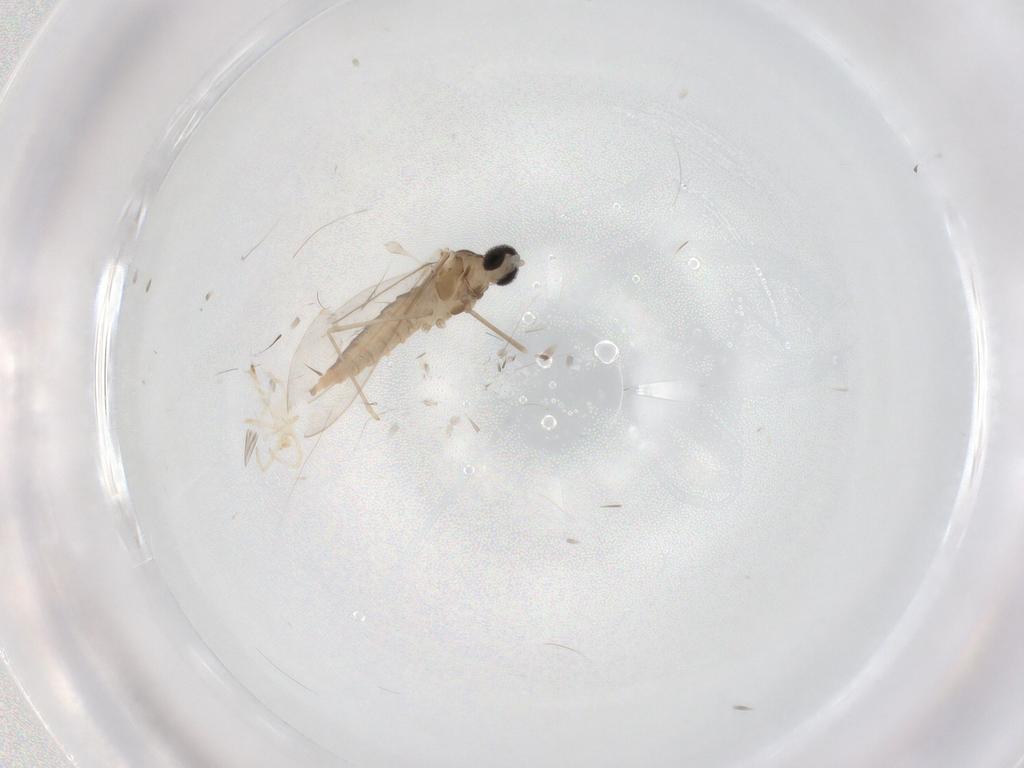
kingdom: Animalia
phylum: Arthropoda
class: Insecta
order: Diptera
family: Cecidomyiidae
